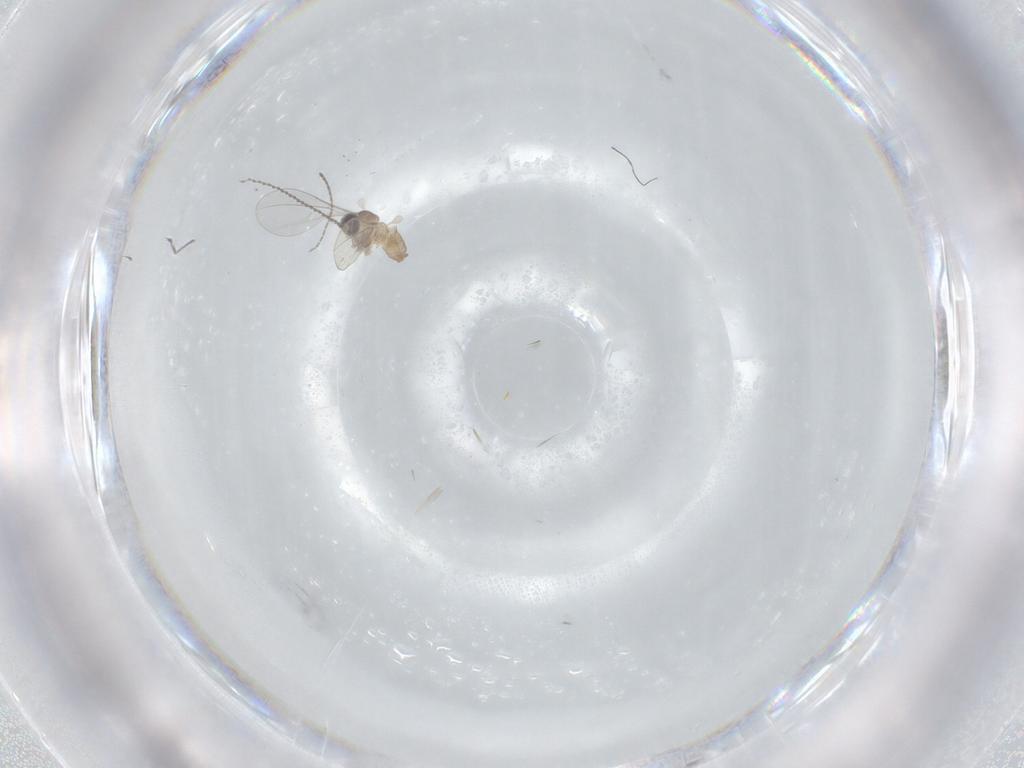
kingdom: Animalia
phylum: Arthropoda
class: Insecta
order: Diptera
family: Sciaridae
